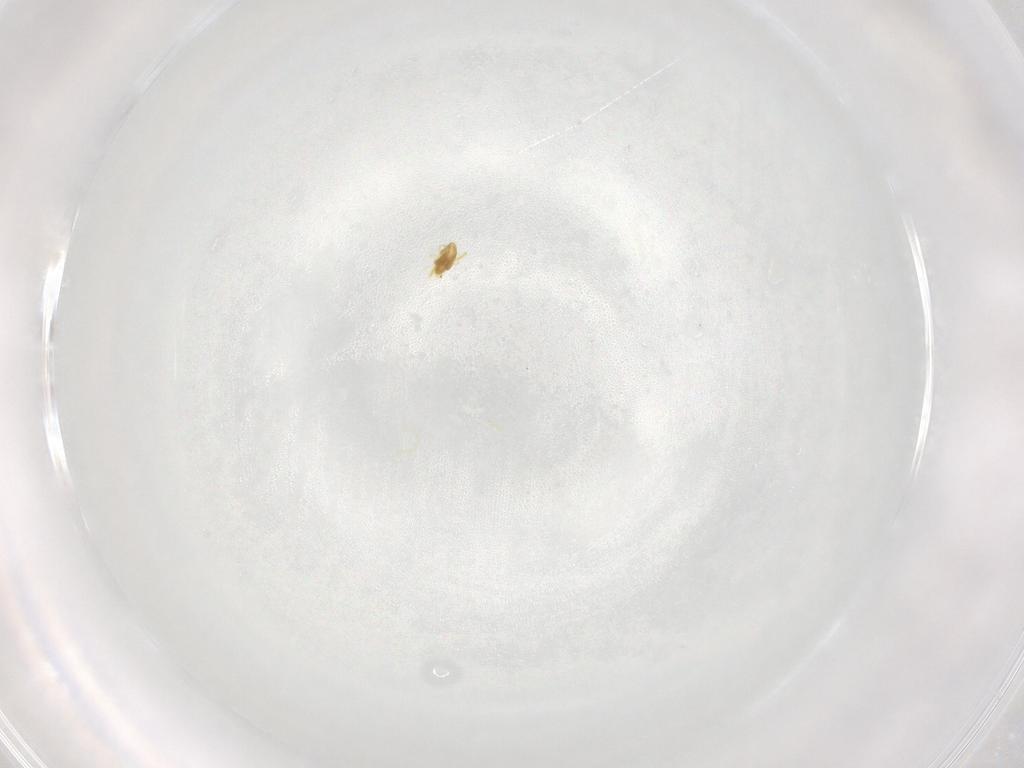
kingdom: Animalia
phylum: Arthropoda
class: Arachnida
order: Trombidiformes
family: Eupodidae
